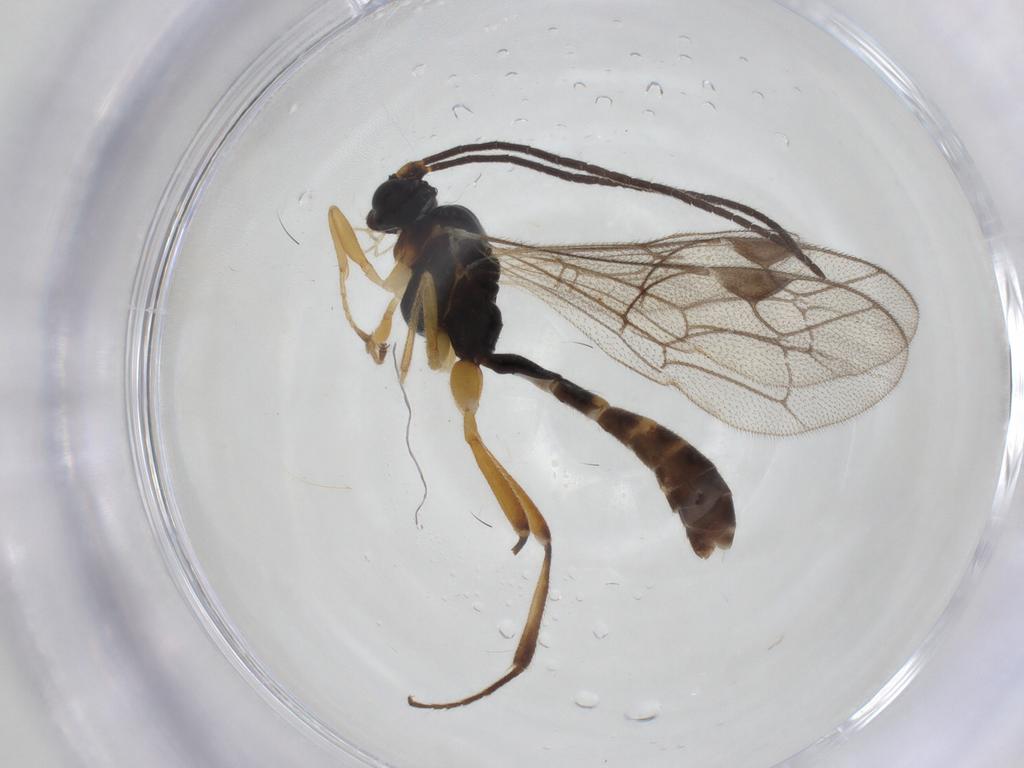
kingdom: Animalia
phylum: Arthropoda
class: Insecta
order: Hymenoptera
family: Ichneumonidae
